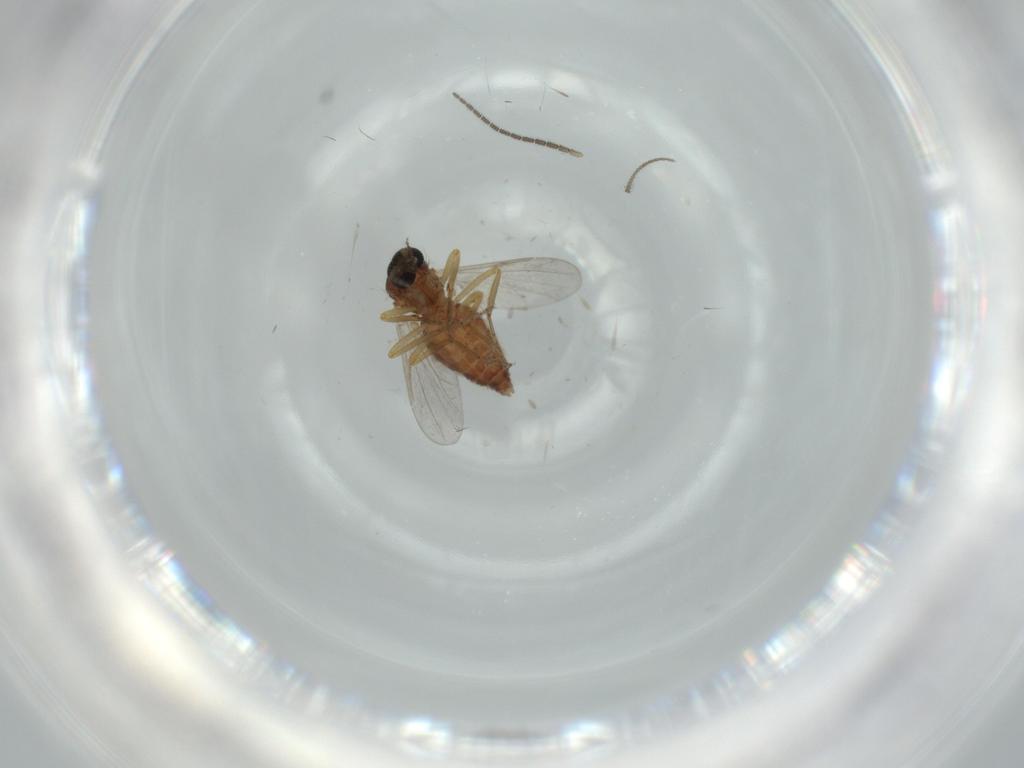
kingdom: Animalia
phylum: Arthropoda
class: Insecta
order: Diptera
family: Ceratopogonidae
